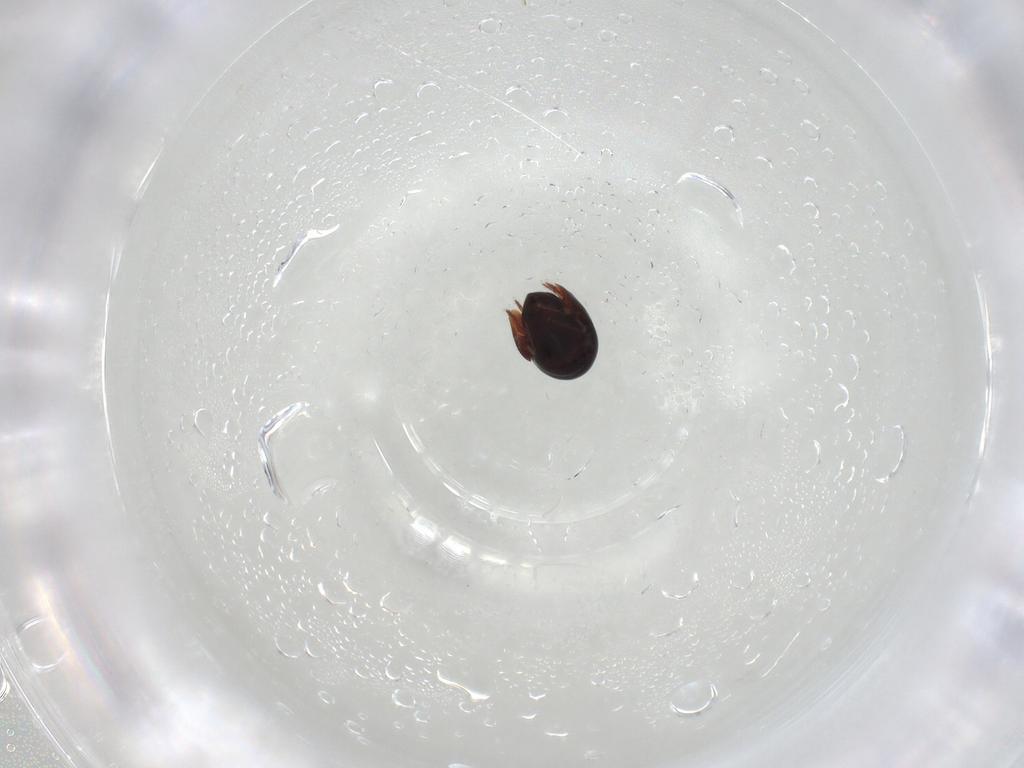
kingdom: Animalia
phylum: Arthropoda
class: Arachnida
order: Sarcoptiformes
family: Galumnidae
